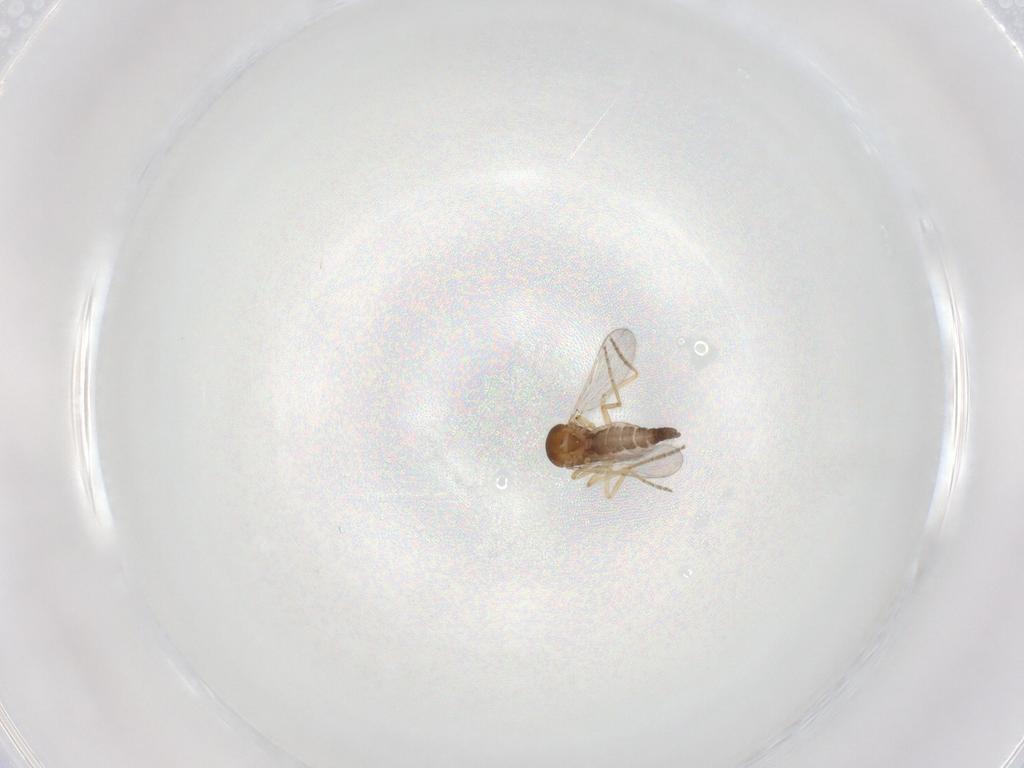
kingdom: Animalia
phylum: Arthropoda
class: Insecta
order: Diptera
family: Ceratopogonidae
